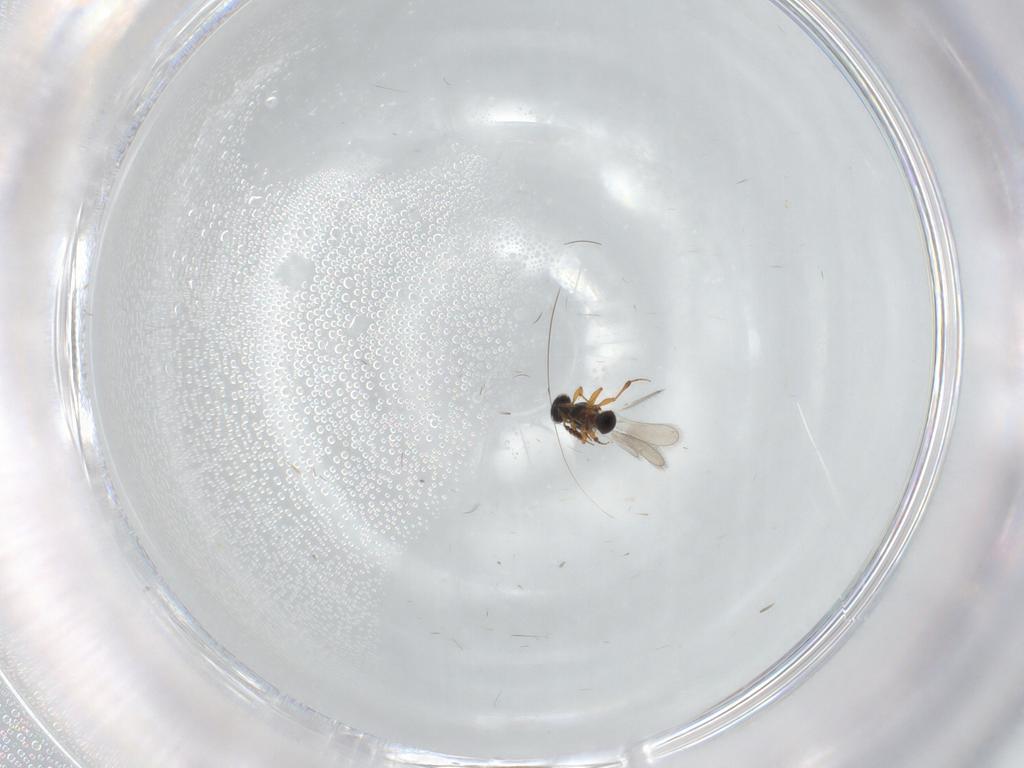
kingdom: Animalia
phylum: Arthropoda
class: Insecta
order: Hymenoptera
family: Platygastridae
